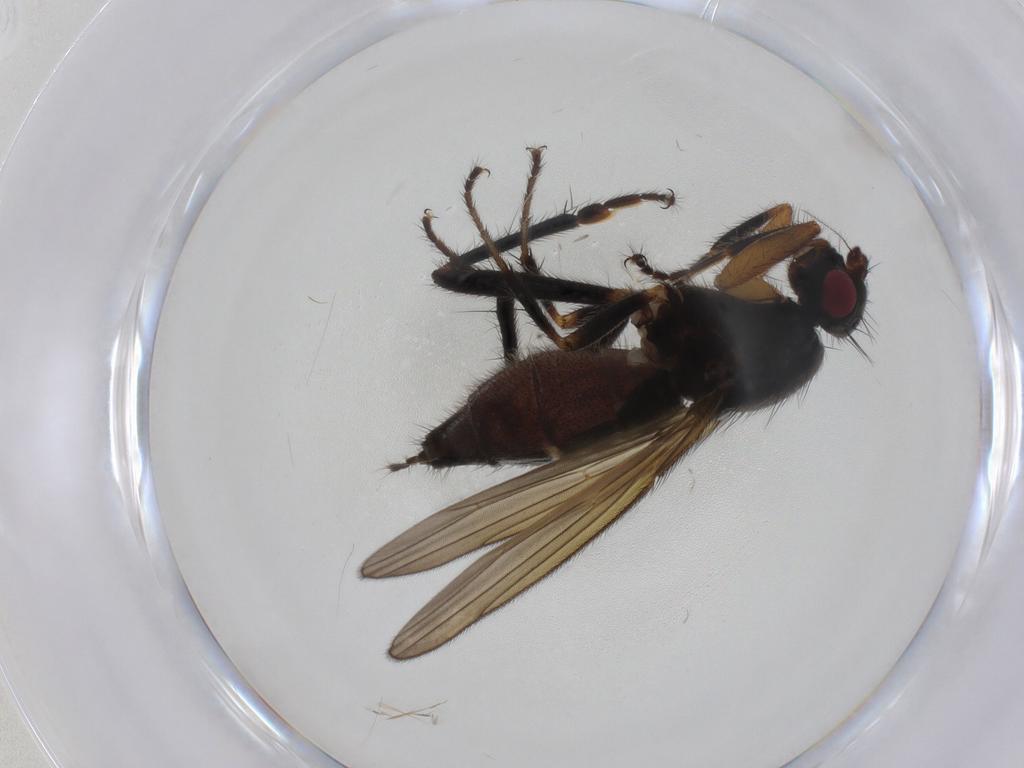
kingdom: Animalia
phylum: Arthropoda
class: Insecta
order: Diptera
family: Sphaeroceridae
